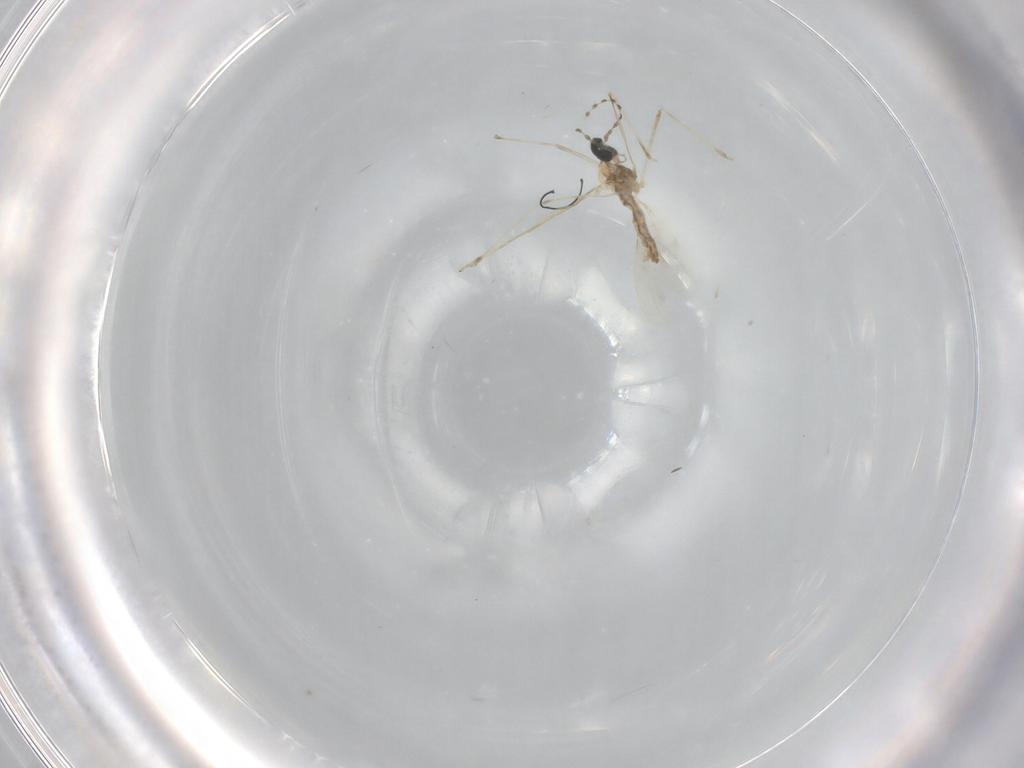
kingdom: Animalia
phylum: Arthropoda
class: Insecta
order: Diptera
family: Cecidomyiidae
